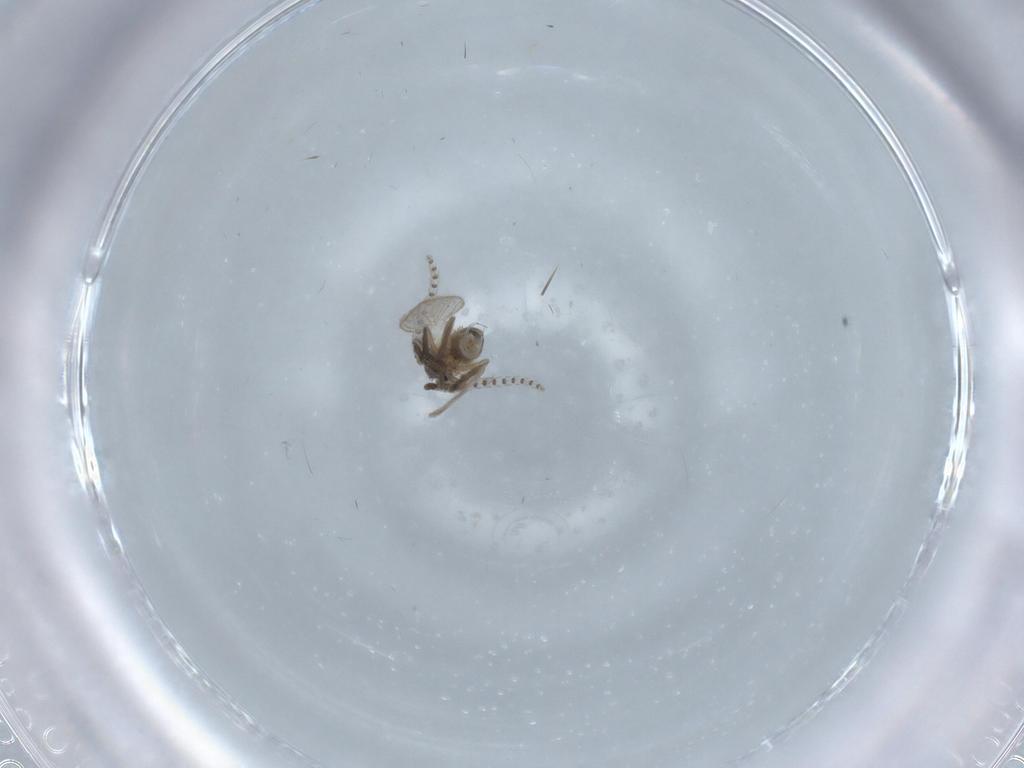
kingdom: Animalia
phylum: Arthropoda
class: Insecta
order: Diptera
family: Psychodidae
